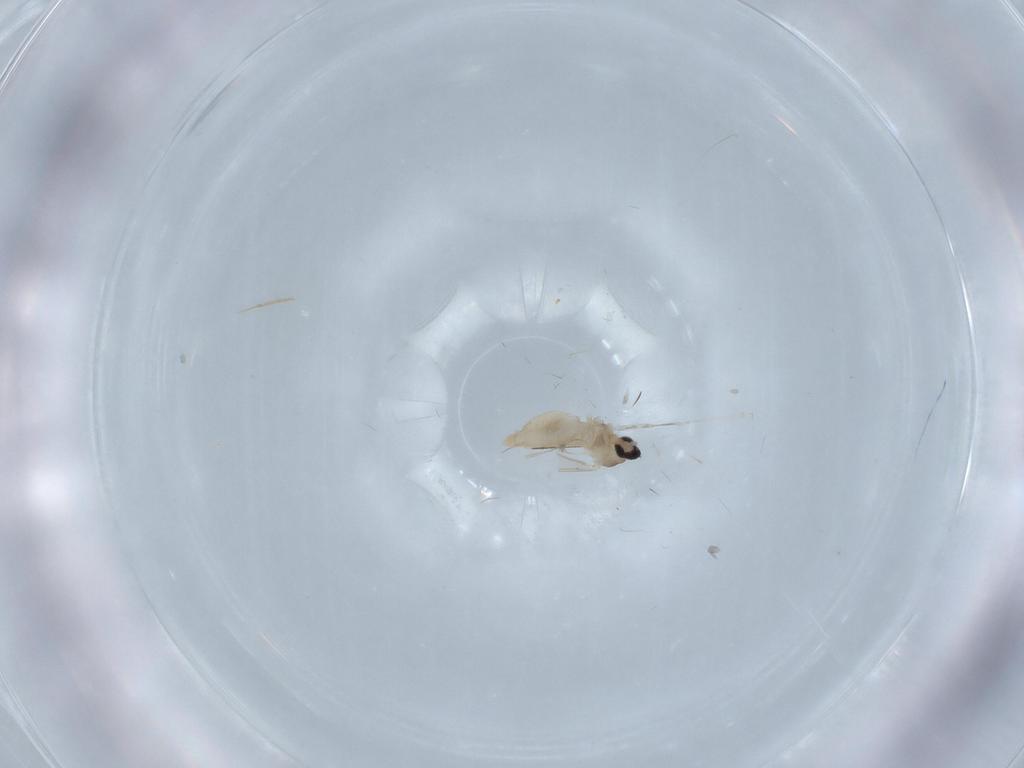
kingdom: Animalia
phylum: Arthropoda
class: Insecta
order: Diptera
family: Cecidomyiidae
